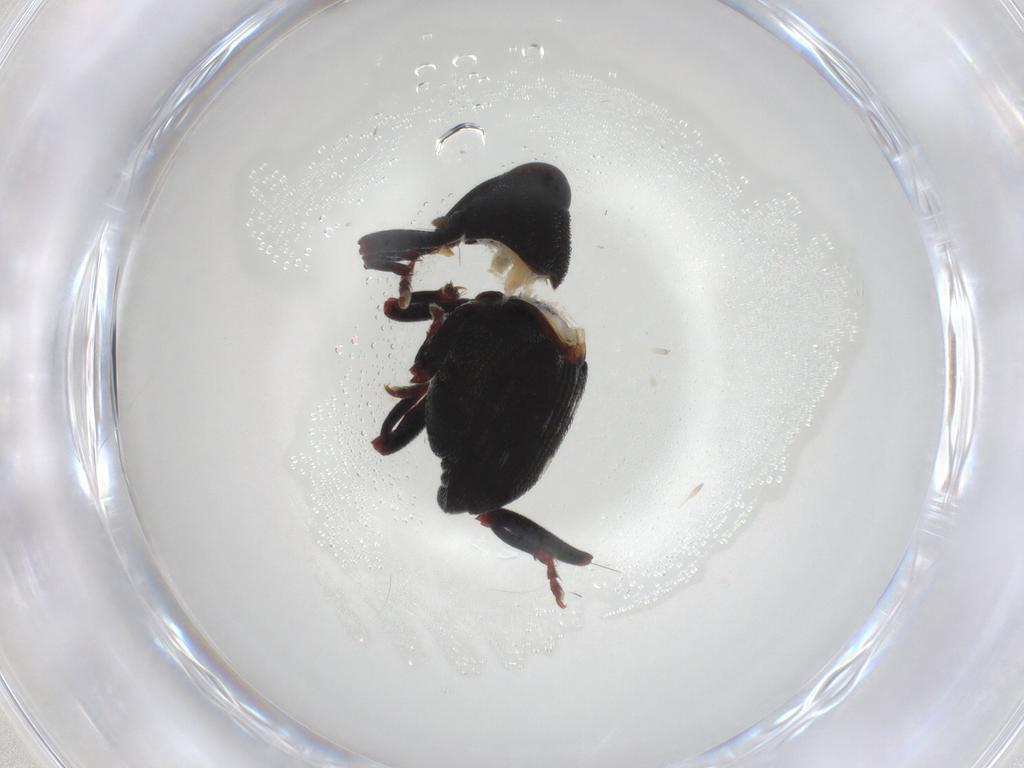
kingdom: Animalia
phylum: Arthropoda
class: Insecta
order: Coleoptera
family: Curculionidae
